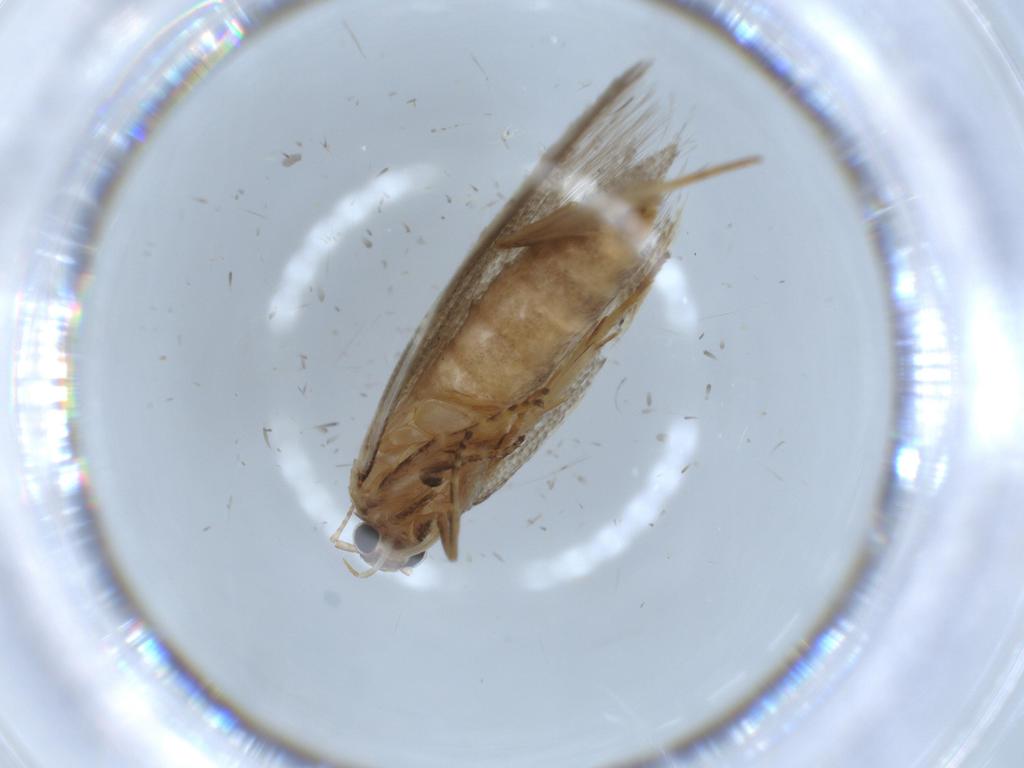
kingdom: Animalia
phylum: Arthropoda
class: Insecta
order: Lepidoptera
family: Oecophoridae
